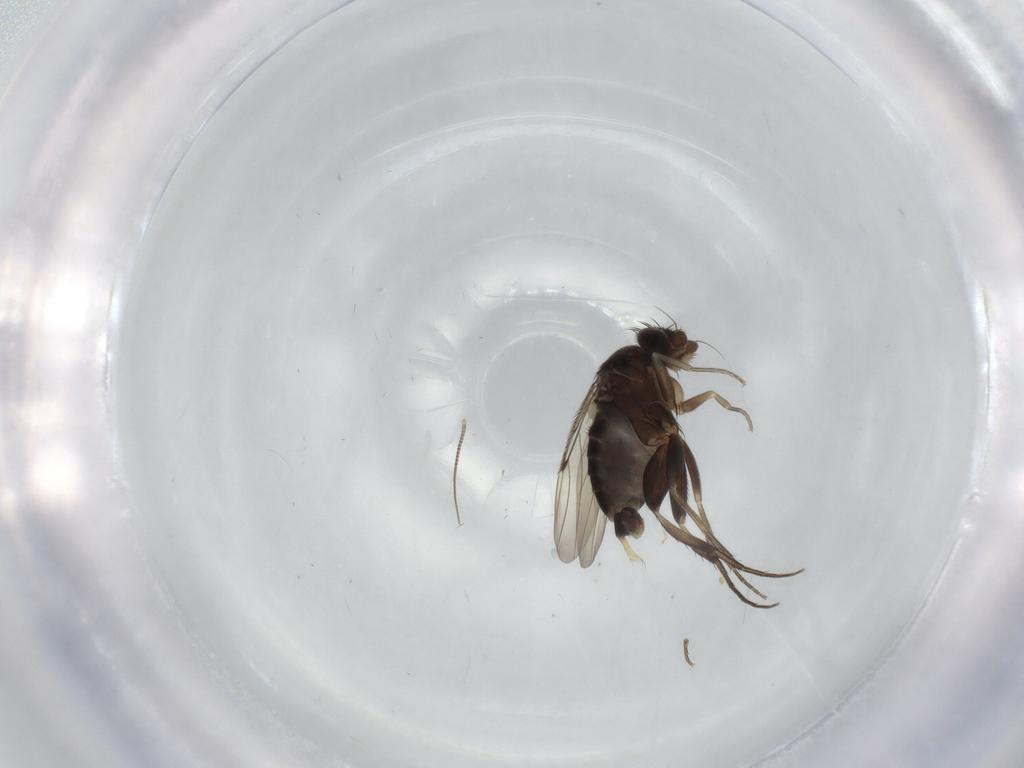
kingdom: Animalia
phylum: Arthropoda
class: Insecta
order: Diptera
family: Phoridae
